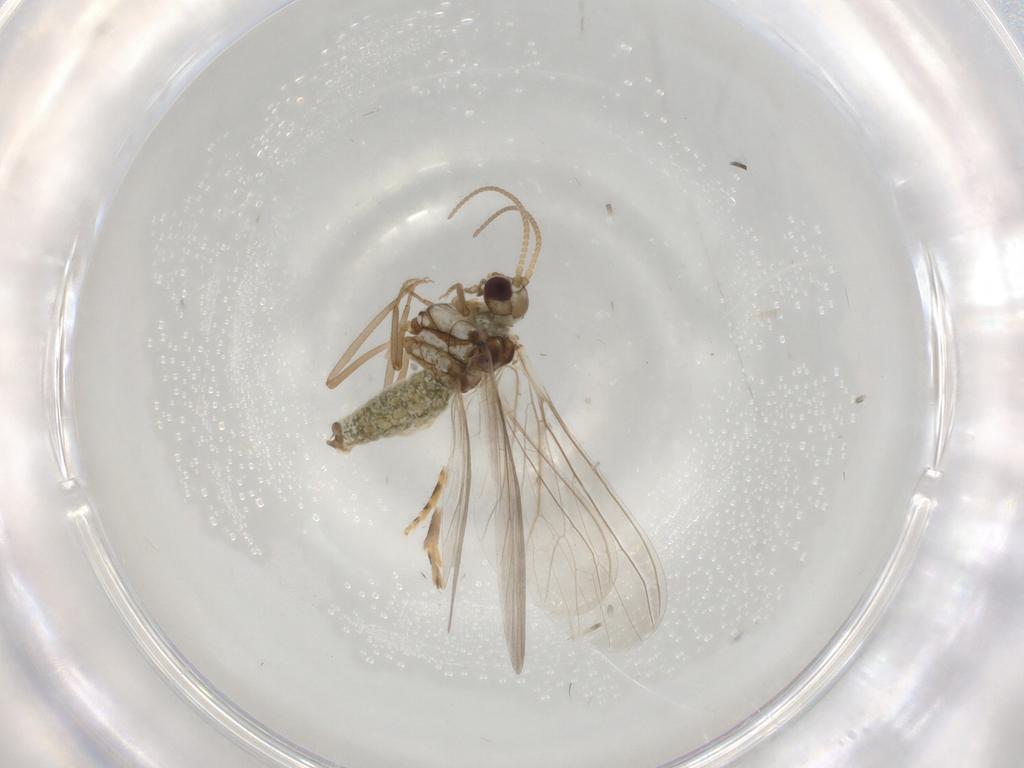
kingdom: Animalia
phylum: Arthropoda
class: Insecta
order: Neuroptera
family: Coniopterygidae
